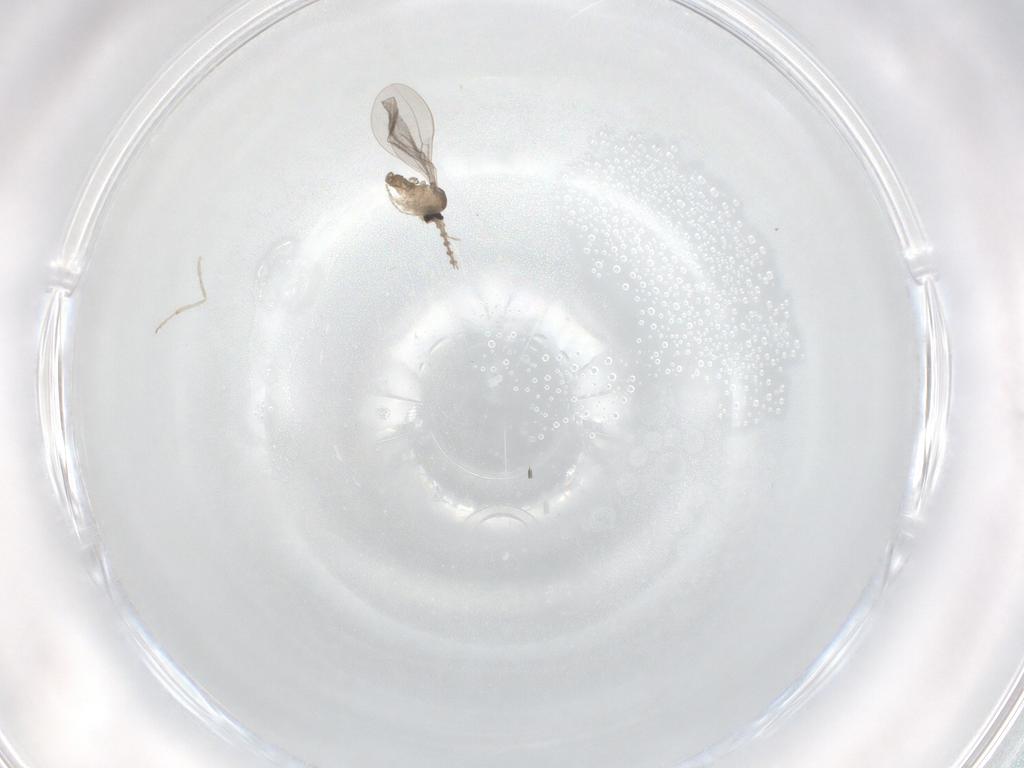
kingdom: Animalia
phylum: Arthropoda
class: Insecta
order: Diptera
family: Cecidomyiidae
